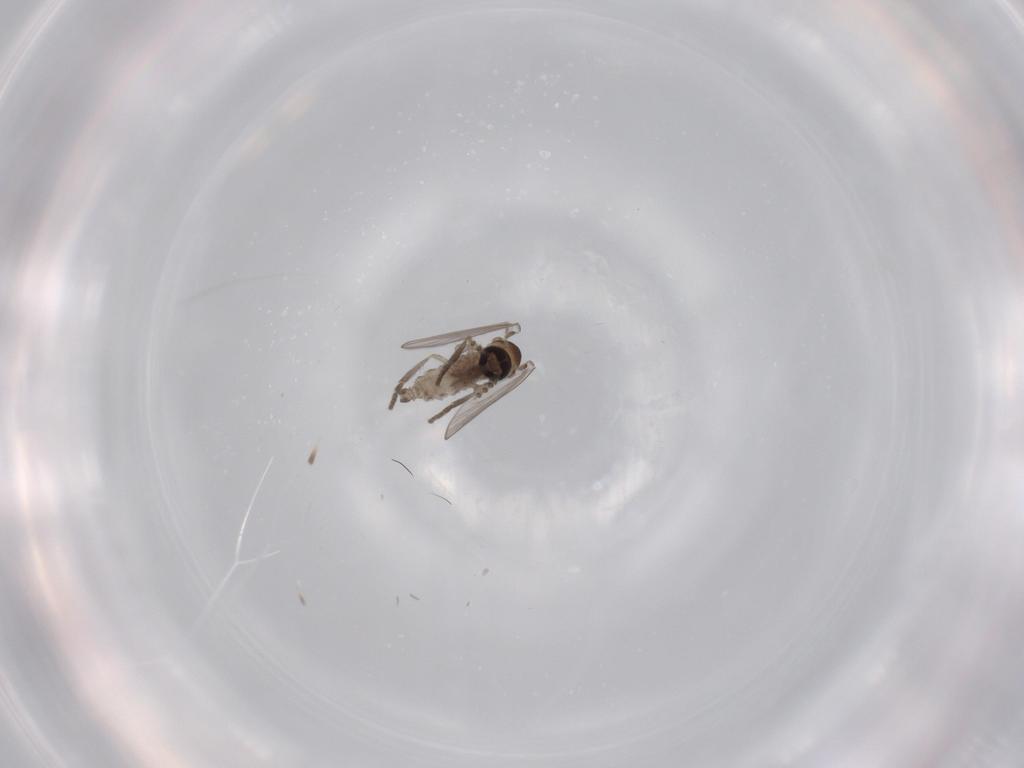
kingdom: Animalia
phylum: Arthropoda
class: Insecta
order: Diptera
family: Psychodidae
